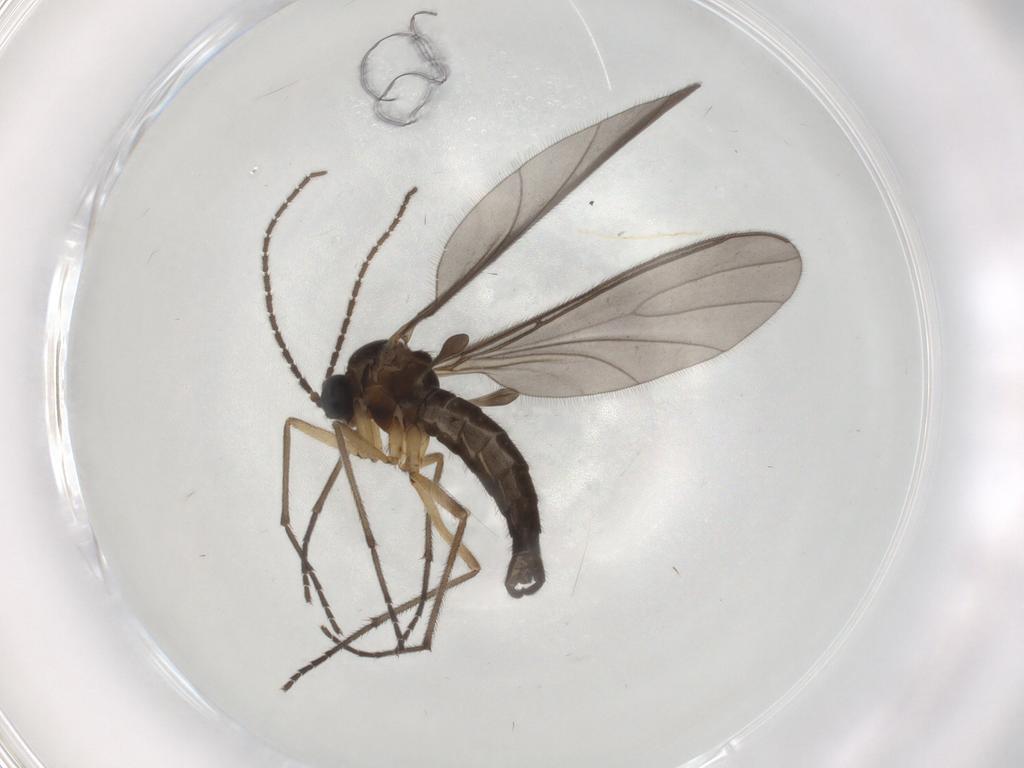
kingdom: Animalia
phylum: Arthropoda
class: Insecta
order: Diptera
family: Sciaridae
